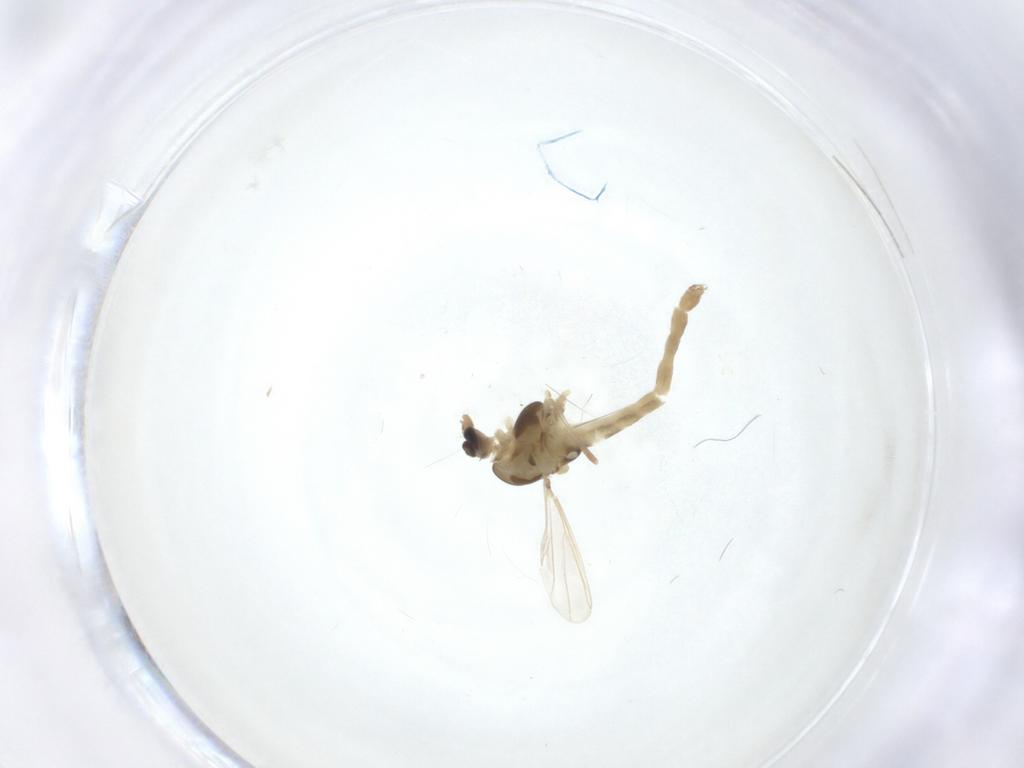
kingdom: Animalia
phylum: Arthropoda
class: Insecta
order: Diptera
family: Chironomidae
